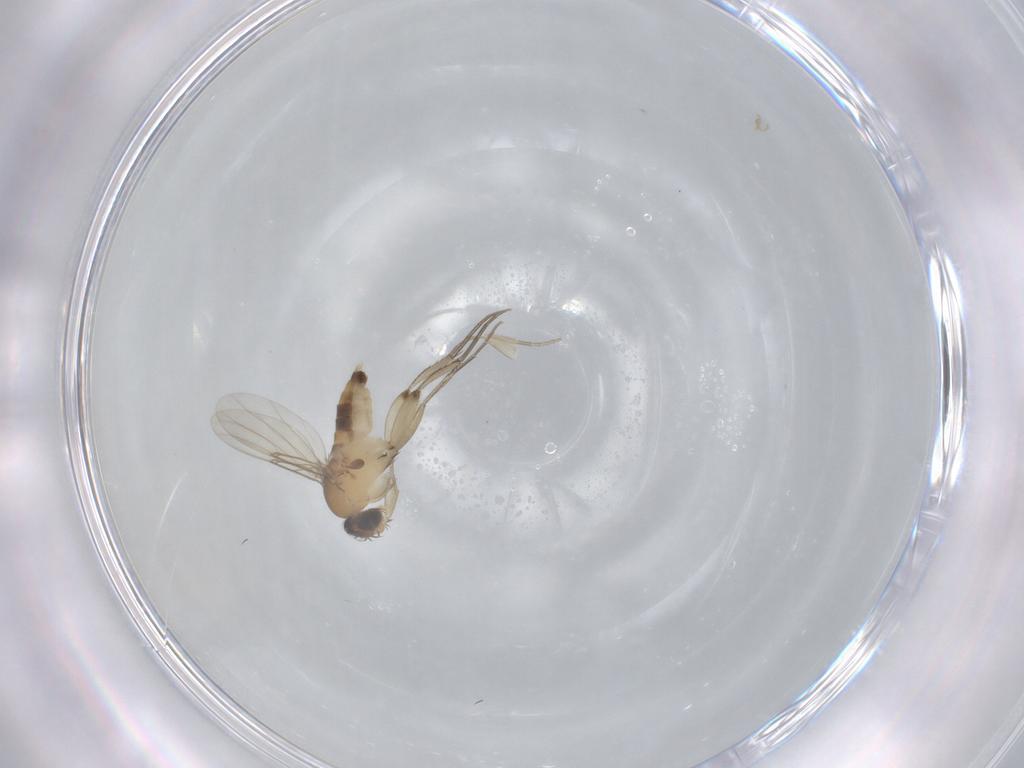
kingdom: Animalia
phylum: Arthropoda
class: Insecta
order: Diptera
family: Phoridae
